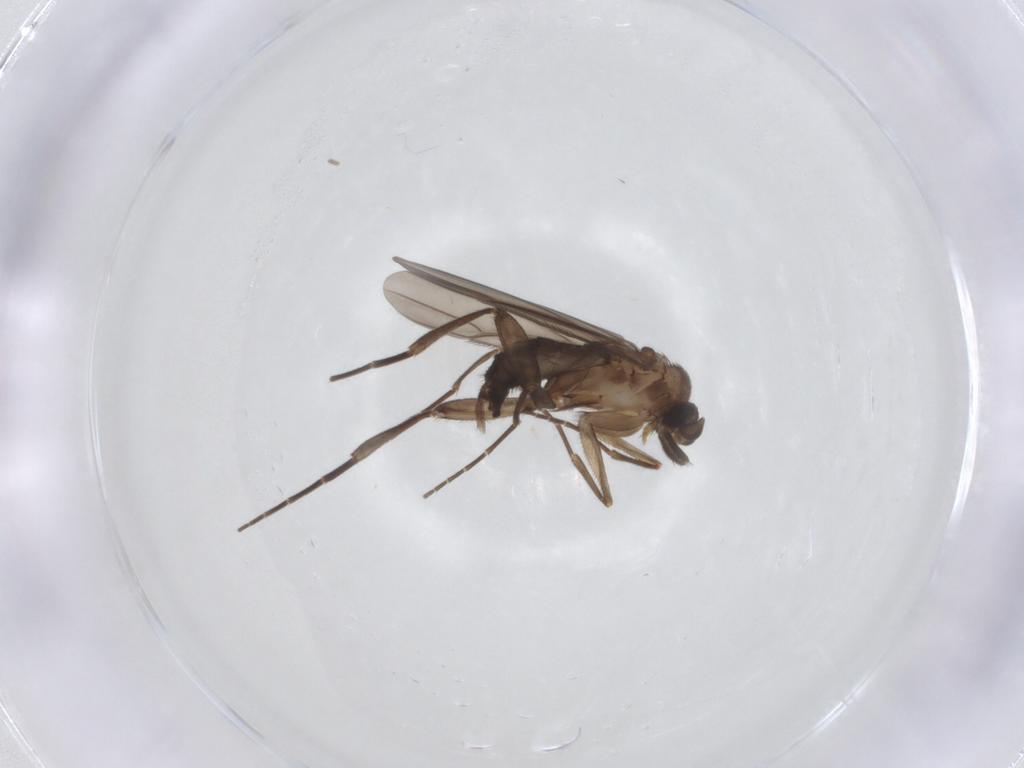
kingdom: Animalia
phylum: Arthropoda
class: Insecta
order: Diptera
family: Phoridae
